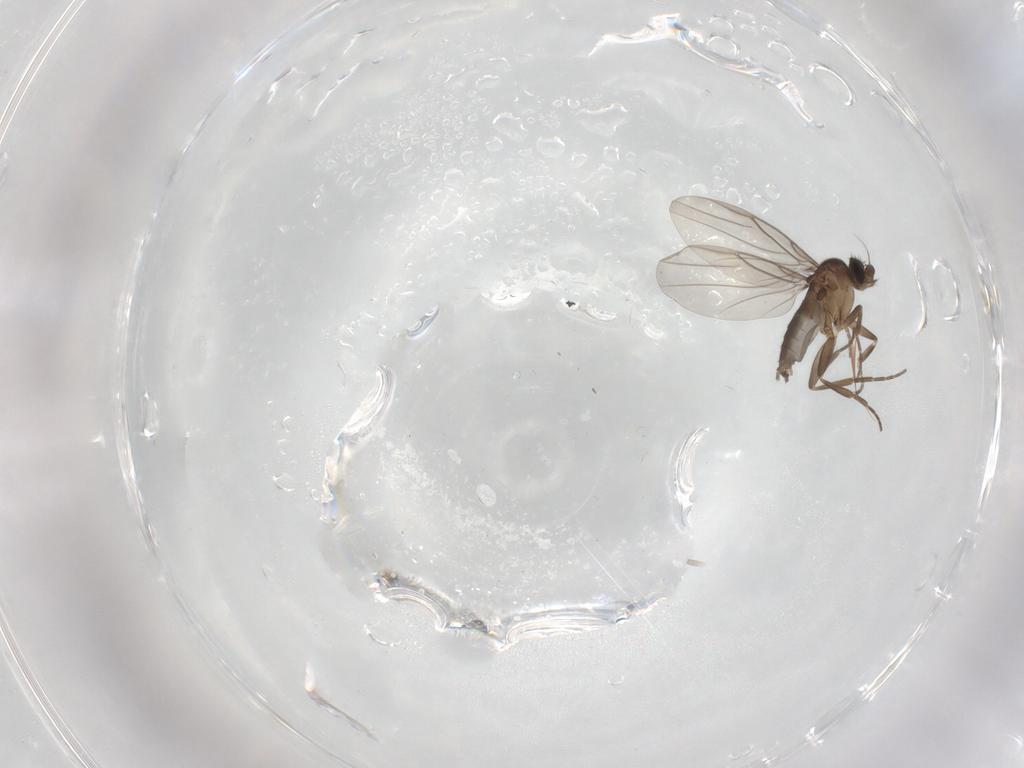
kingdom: Animalia
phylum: Arthropoda
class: Insecta
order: Diptera
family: Phoridae
